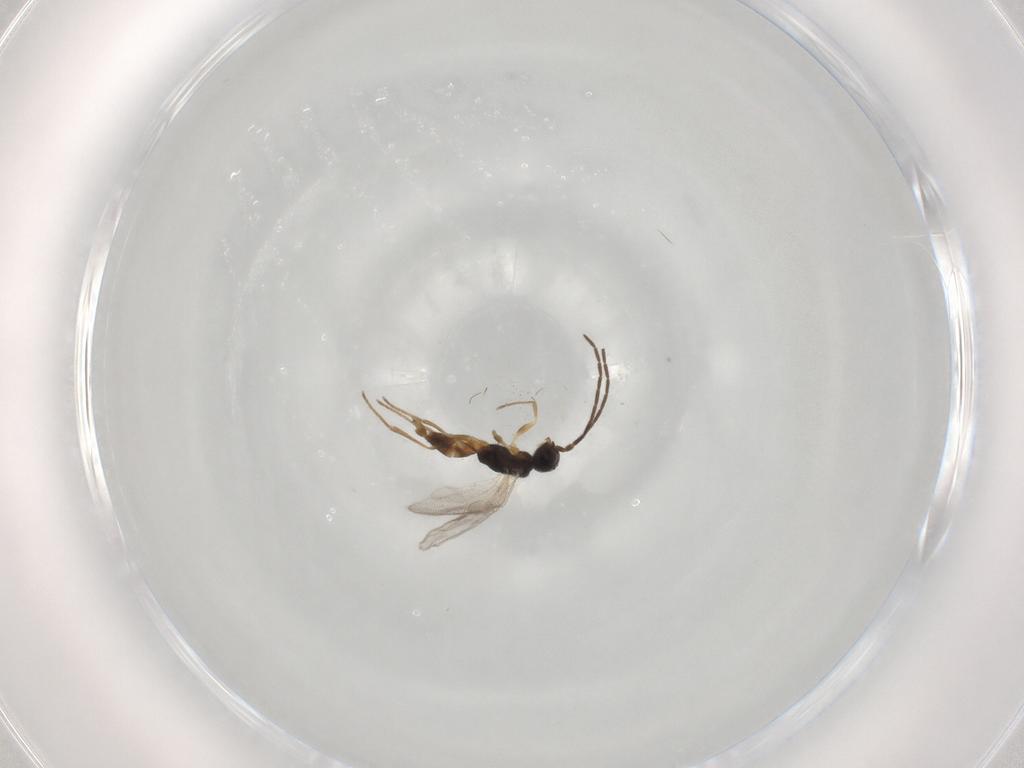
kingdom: Animalia
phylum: Arthropoda
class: Insecta
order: Hymenoptera
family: Dryinidae
